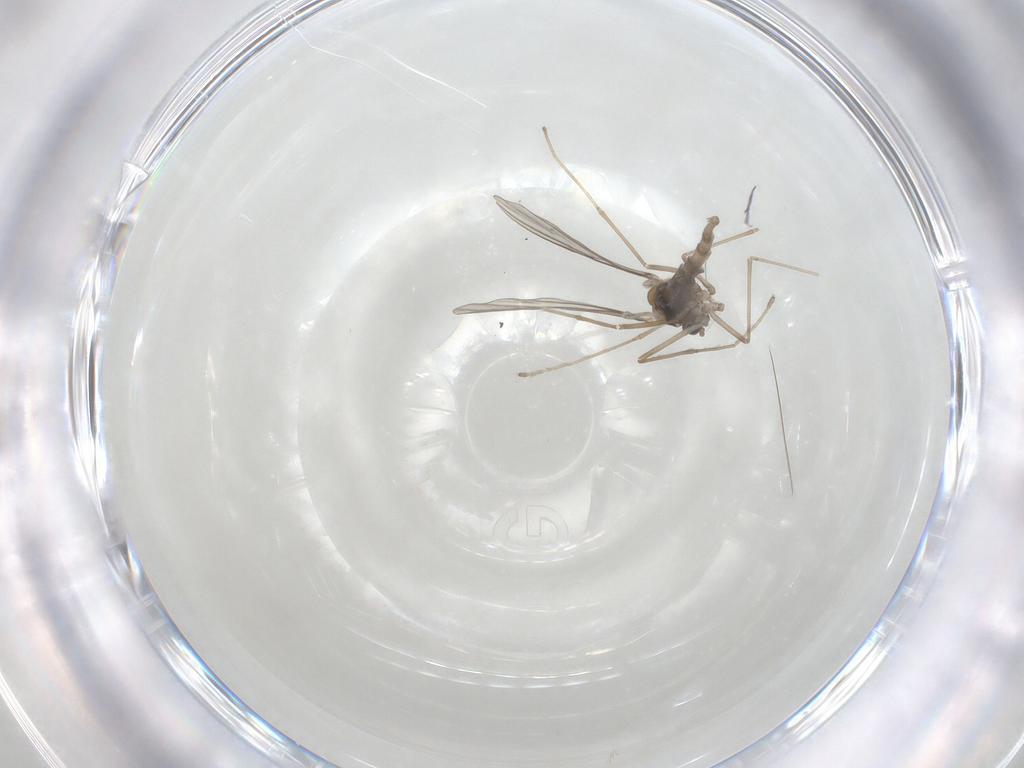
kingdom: Animalia
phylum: Arthropoda
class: Insecta
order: Diptera
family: Cecidomyiidae
